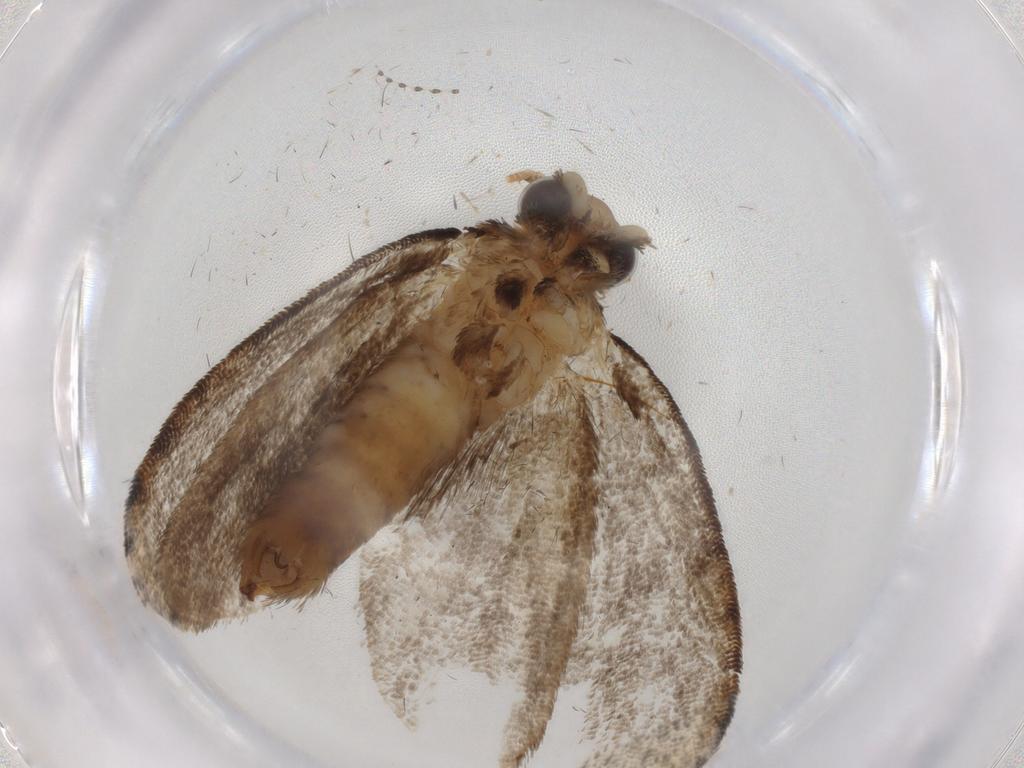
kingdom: Animalia
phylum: Arthropoda
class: Insecta
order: Lepidoptera
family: Tineidae
